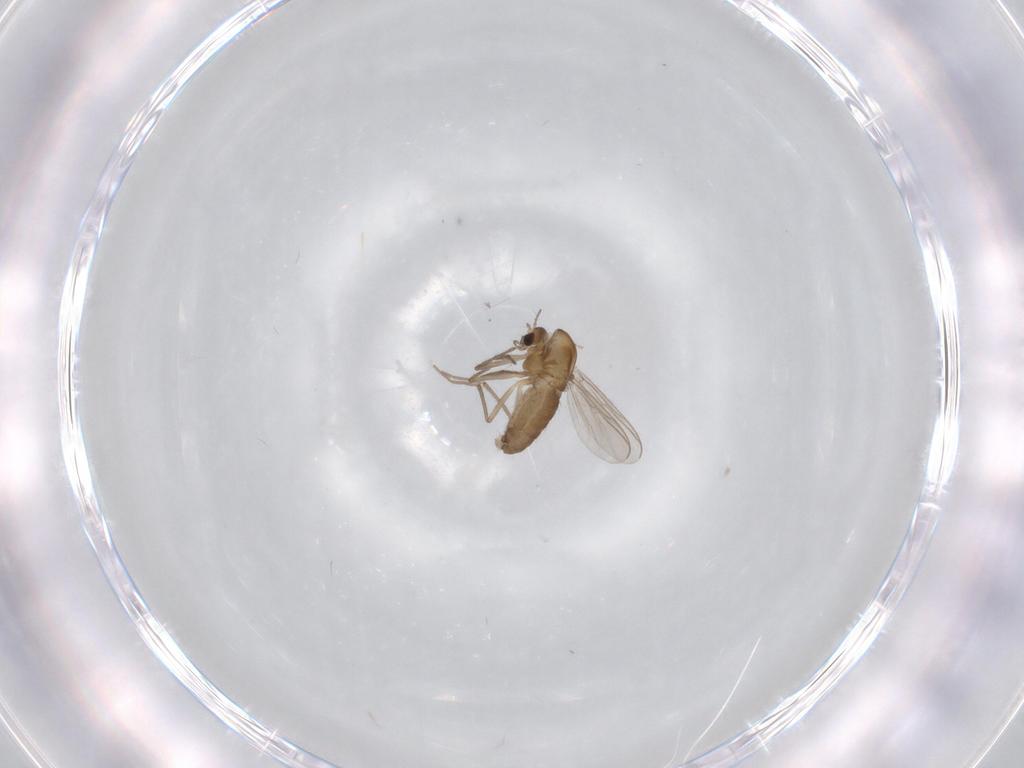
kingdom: Animalia
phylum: Arthropoda
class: Insecta
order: Diptera
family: Chironomidae
